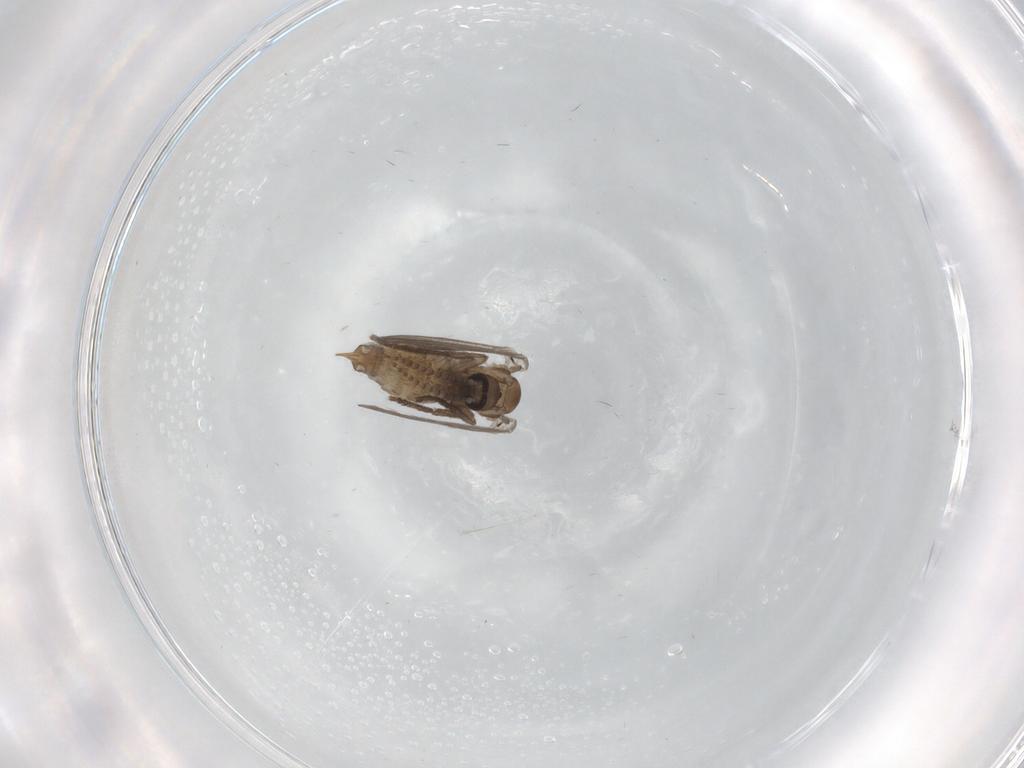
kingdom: Animalia
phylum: Arthropoda
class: Insecta
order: Diptera
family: Psychodidae
